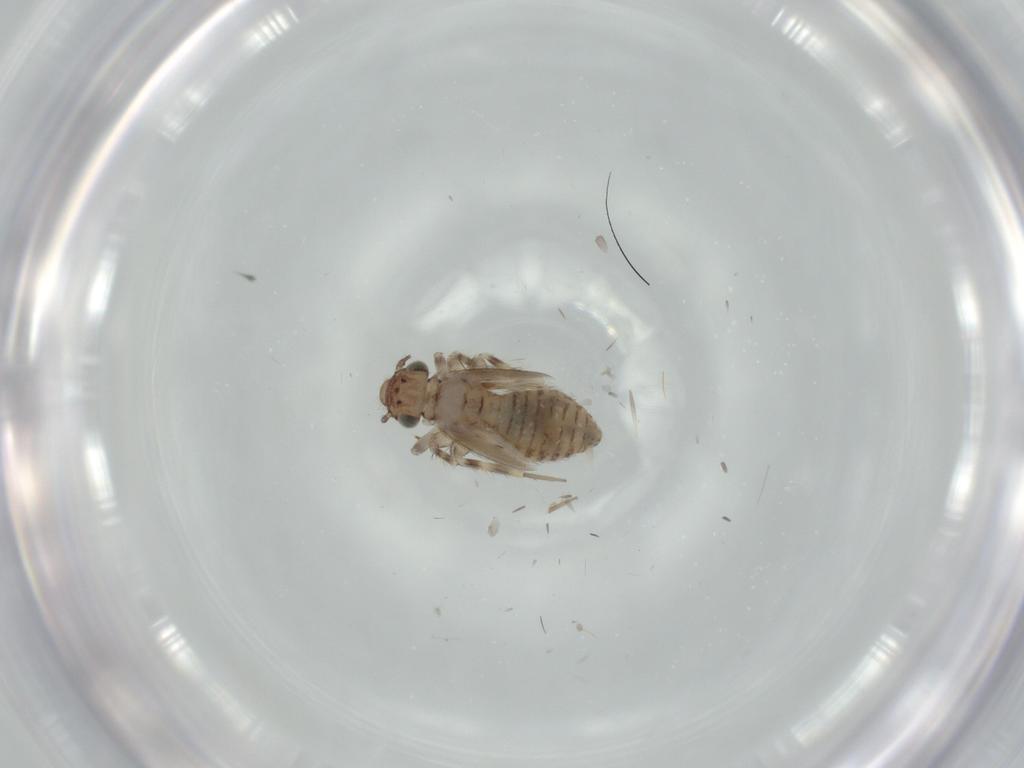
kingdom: Animalia
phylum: Arthropoda
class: Insecta
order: Psocodea
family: Lepidopsocidae
